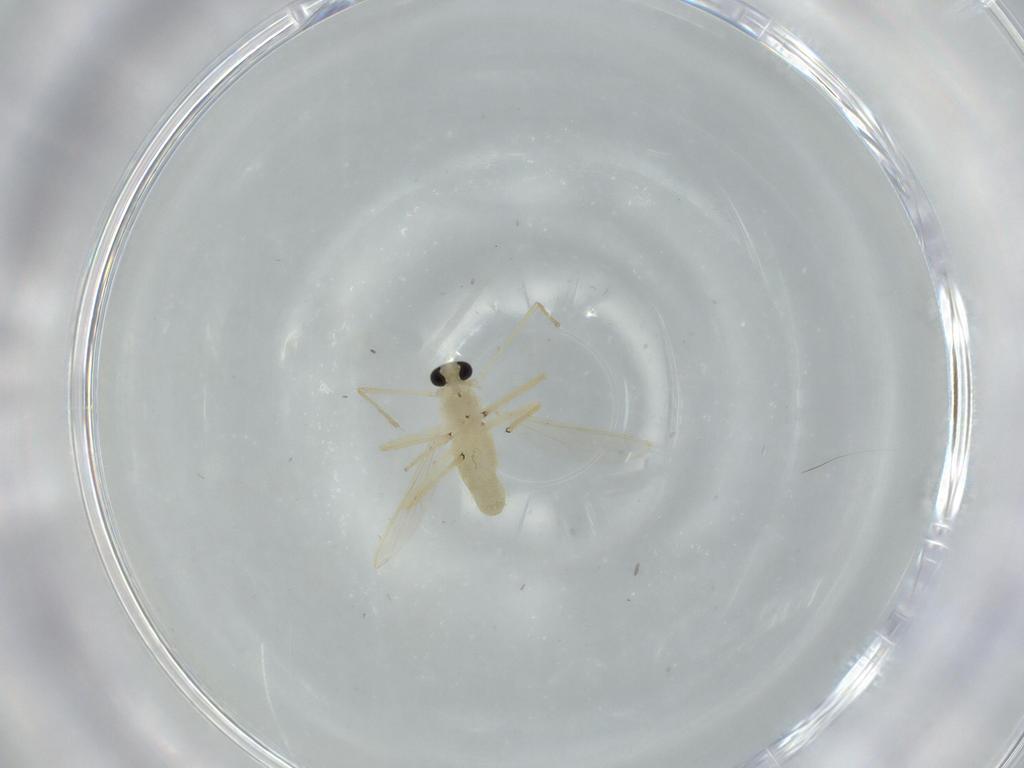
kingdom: Animalia
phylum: Arthropoda
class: Insecta
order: Diptera
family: Chironomidae
